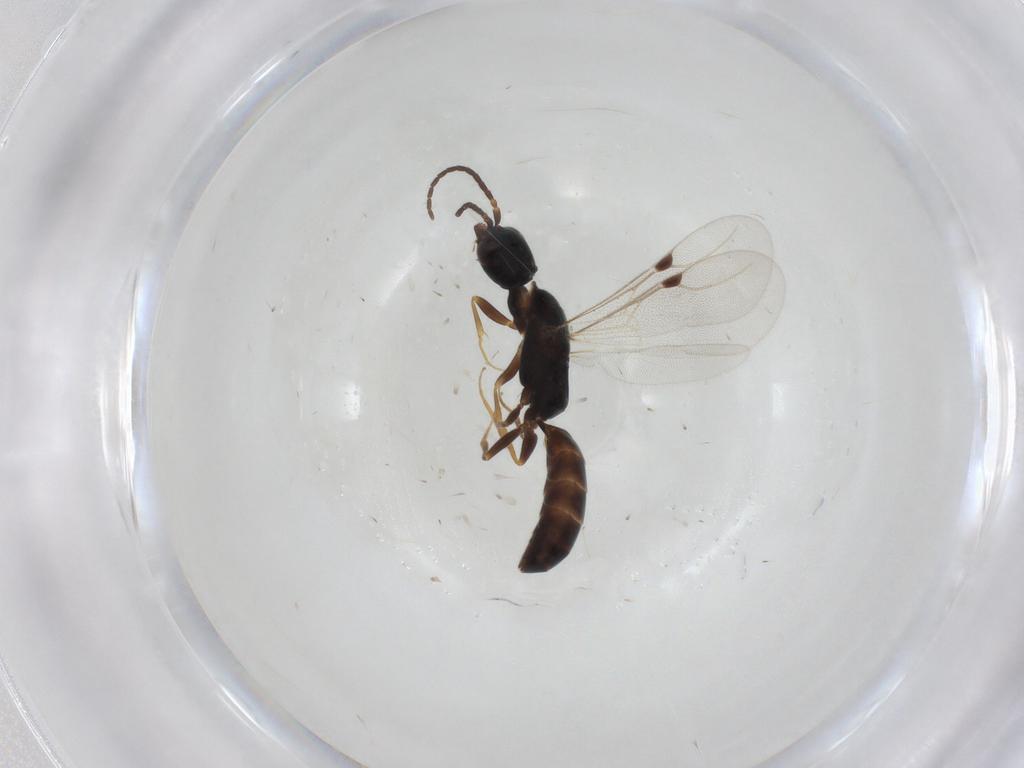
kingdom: Animalia
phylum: Arthropoda
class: Insecta
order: Hymenoptera
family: Bethylidae
